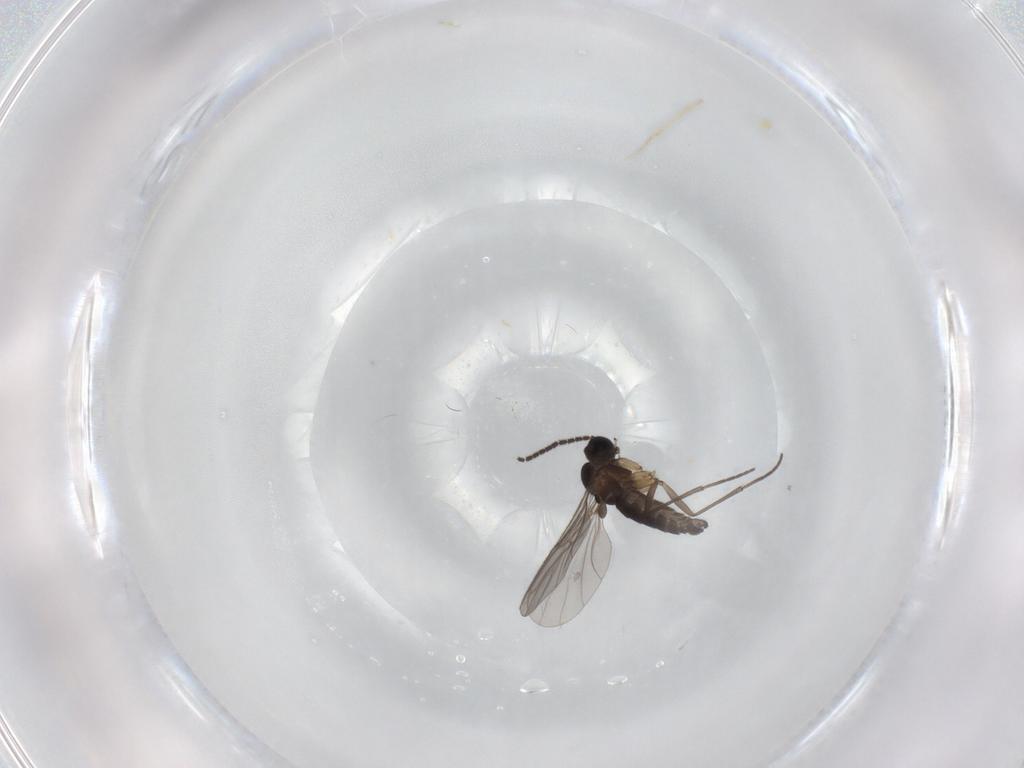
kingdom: Animalia
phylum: Arthropoda
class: Insecta
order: Diptera
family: Sciaridae
